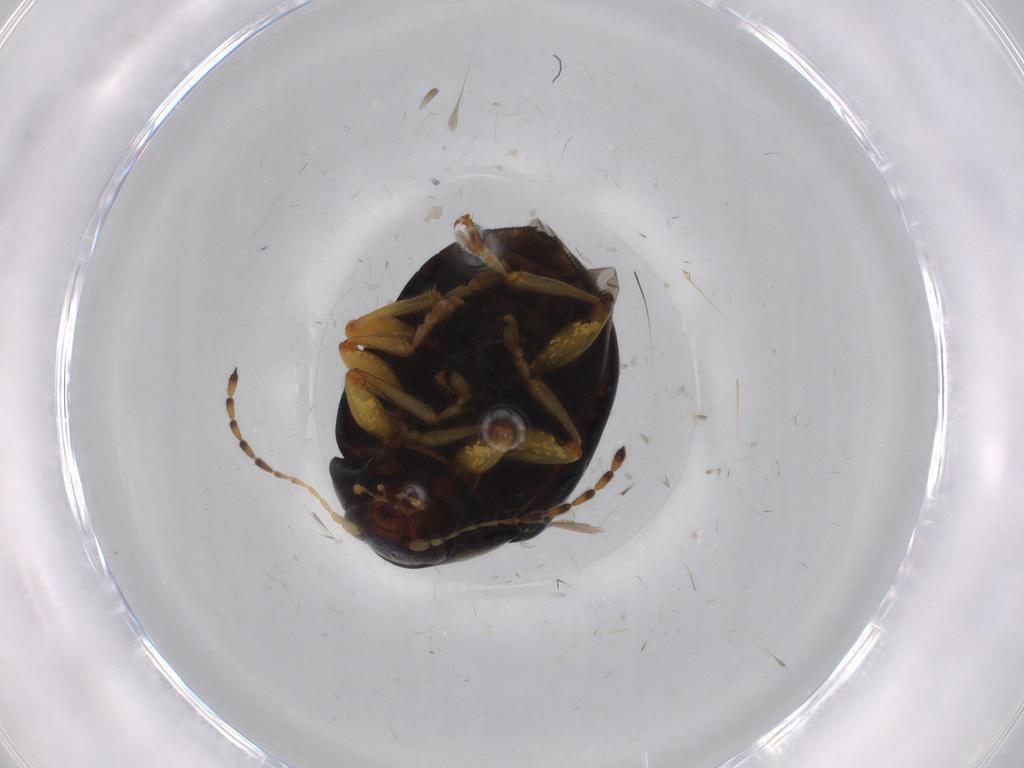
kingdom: Animalia
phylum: Arthropoda
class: Insecta
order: Coleoptera
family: Chrysomelidae
